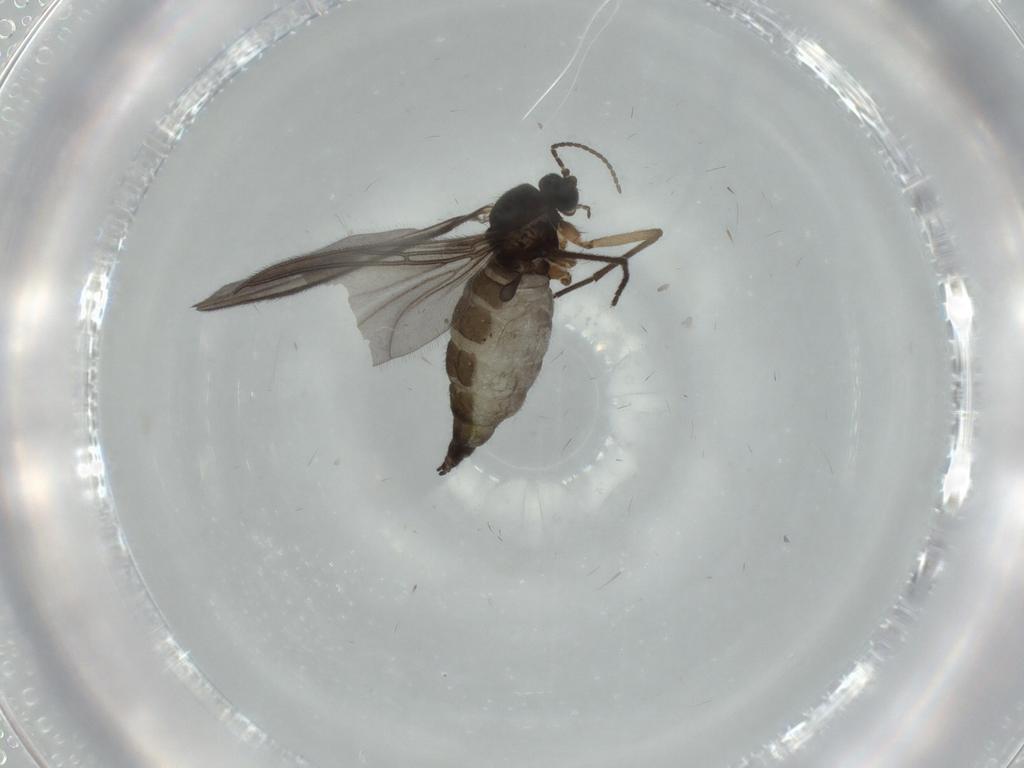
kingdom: Animalia
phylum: Arthropoda
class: Insecta
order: Diptera
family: Sciaridae
